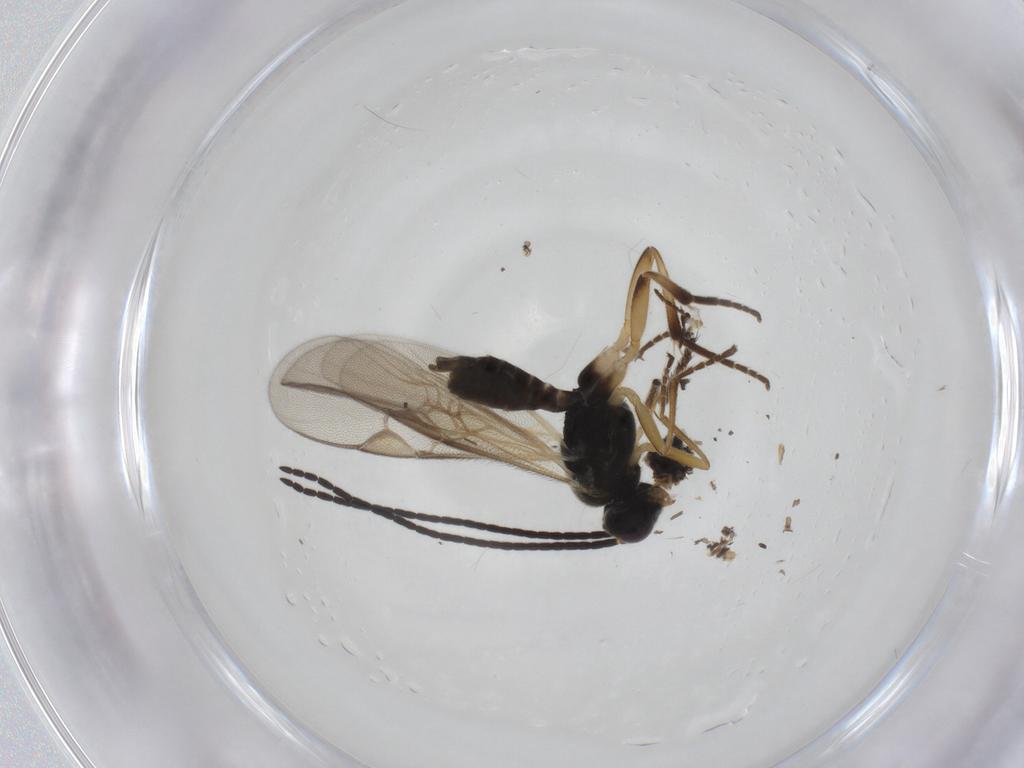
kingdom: Animalia
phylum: Arthropoda
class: Insecta
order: Hymenoptera
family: Braconidae
